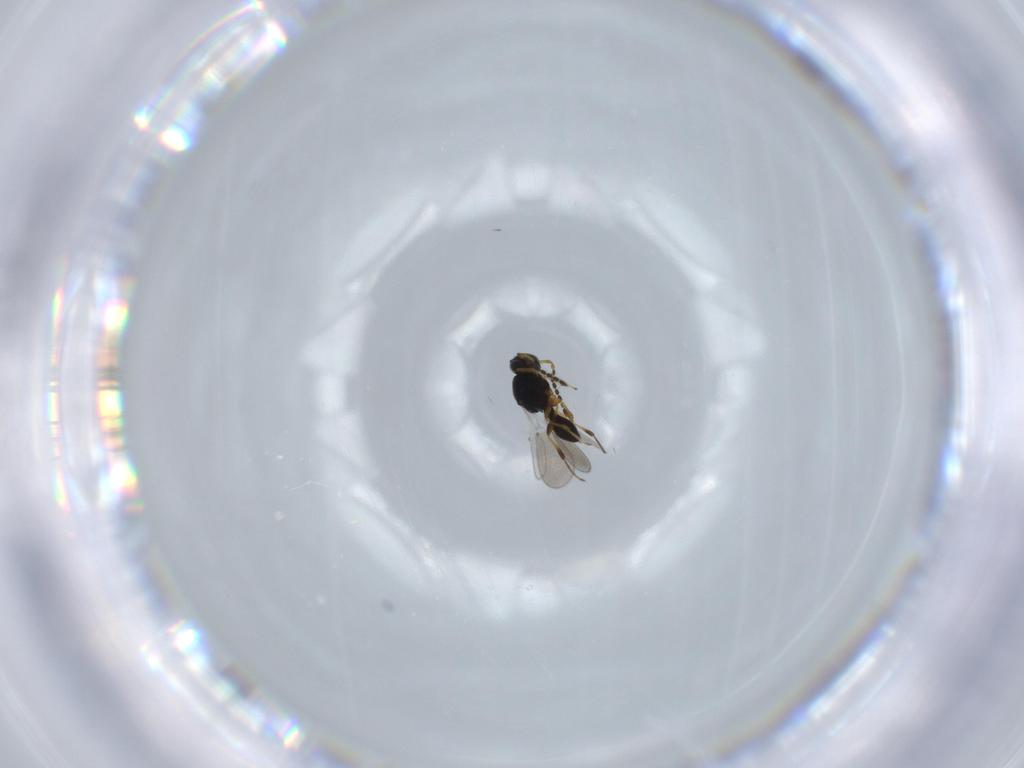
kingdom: Animalia
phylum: Arthropoda
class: Insecta
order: Hymenoptera
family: Platygastridae
